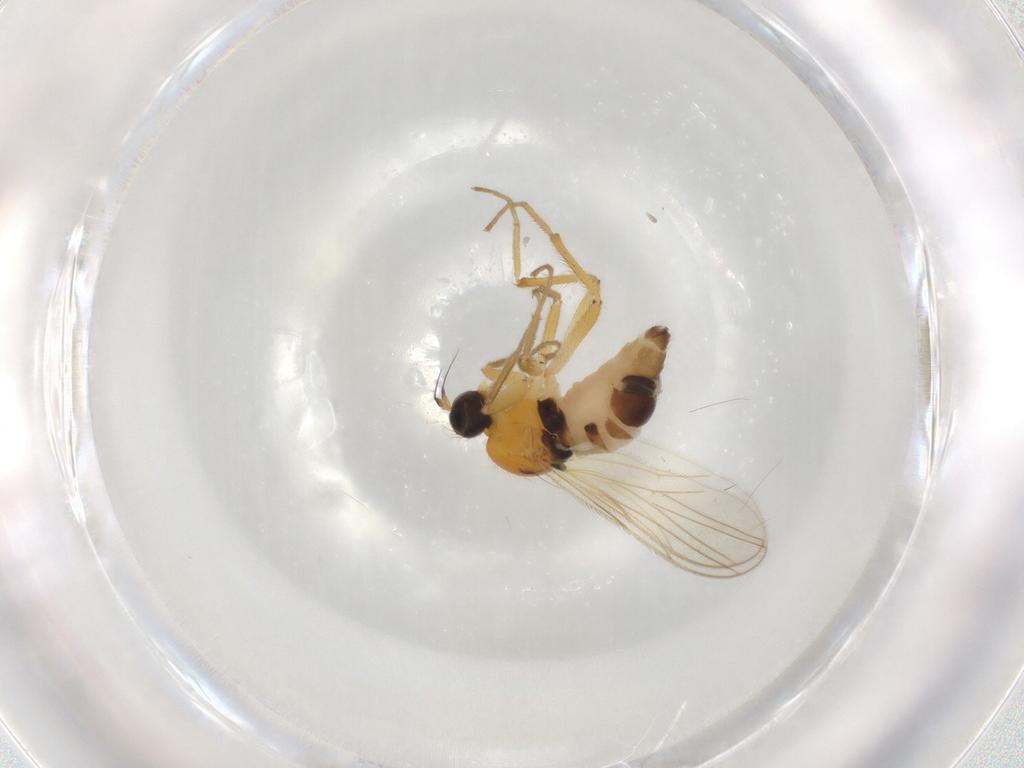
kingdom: Animalia
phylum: Arthropoda
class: Insecta
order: Diptera
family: Hybotidae
